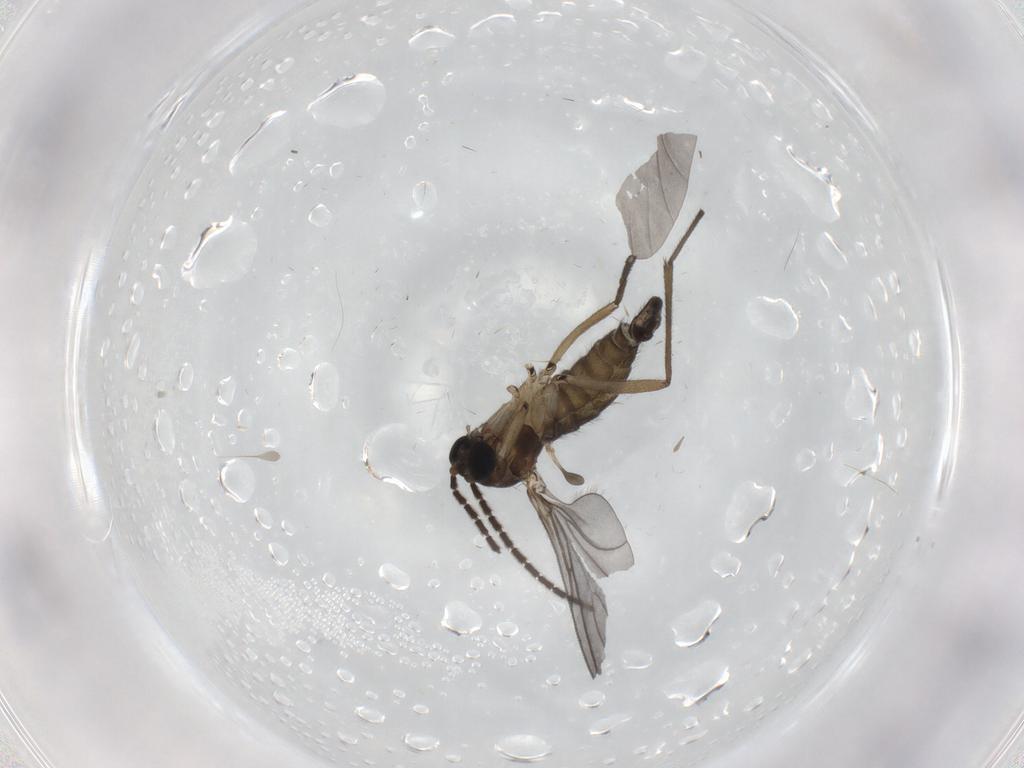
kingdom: Animalia
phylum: Arthropoda
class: Insecta
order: Diptera
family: Sciaridae
